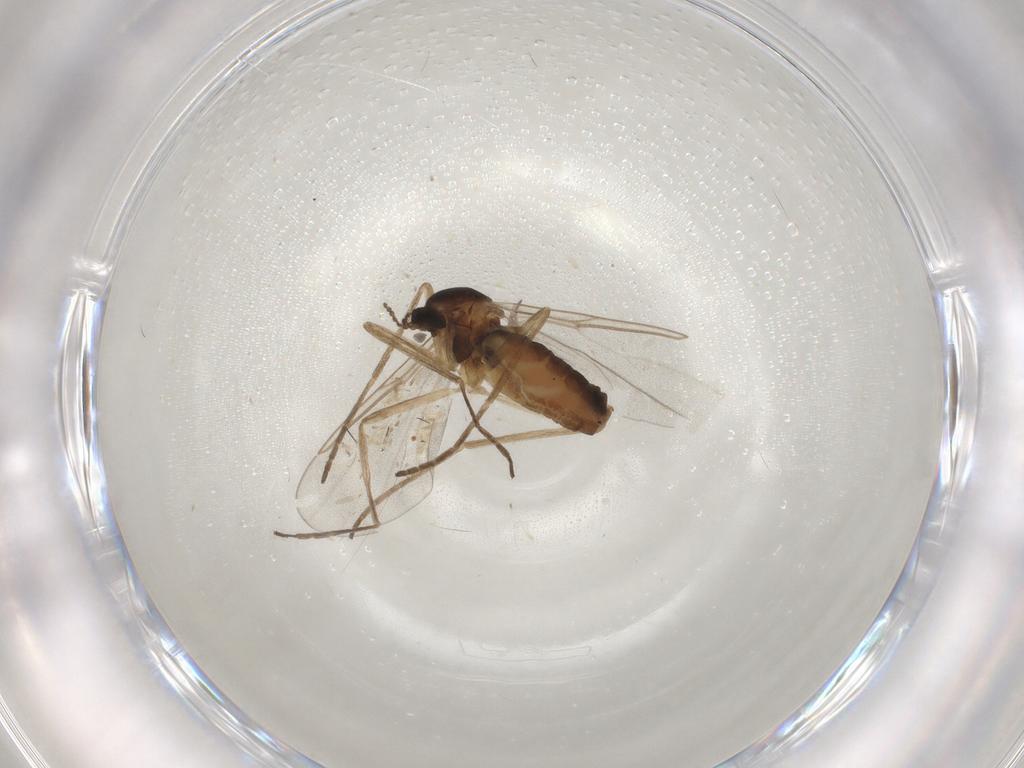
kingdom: Animalia
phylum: Arthropoda
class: Insecta
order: Diptera
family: Cecidomyiidae
